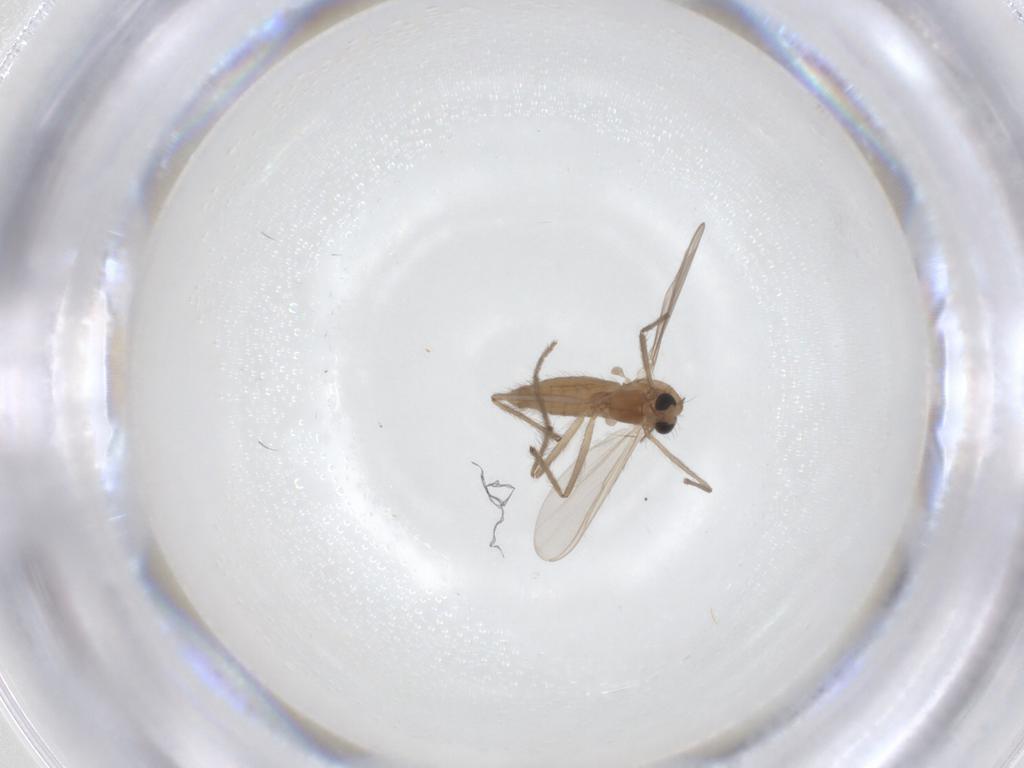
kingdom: Animalia
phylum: Arthropoda
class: Insecta
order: Diptera
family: Chironomidae
